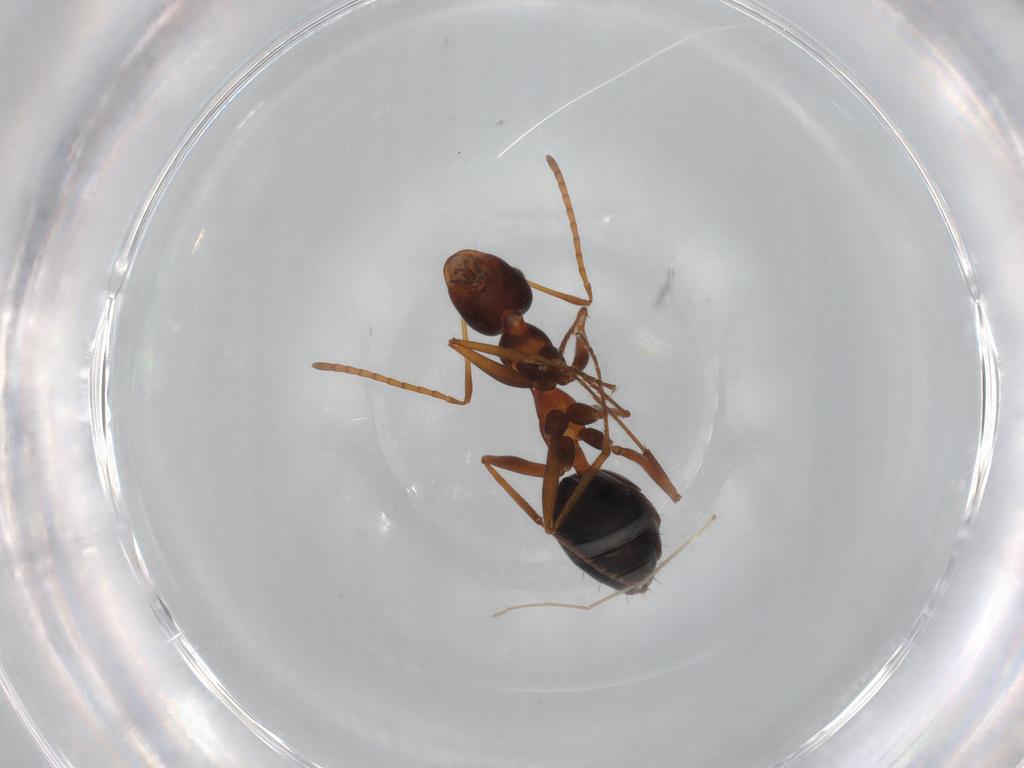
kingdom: Animalia
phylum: Arthropoda
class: Insecta
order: Hymenoptera
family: Formicidae
